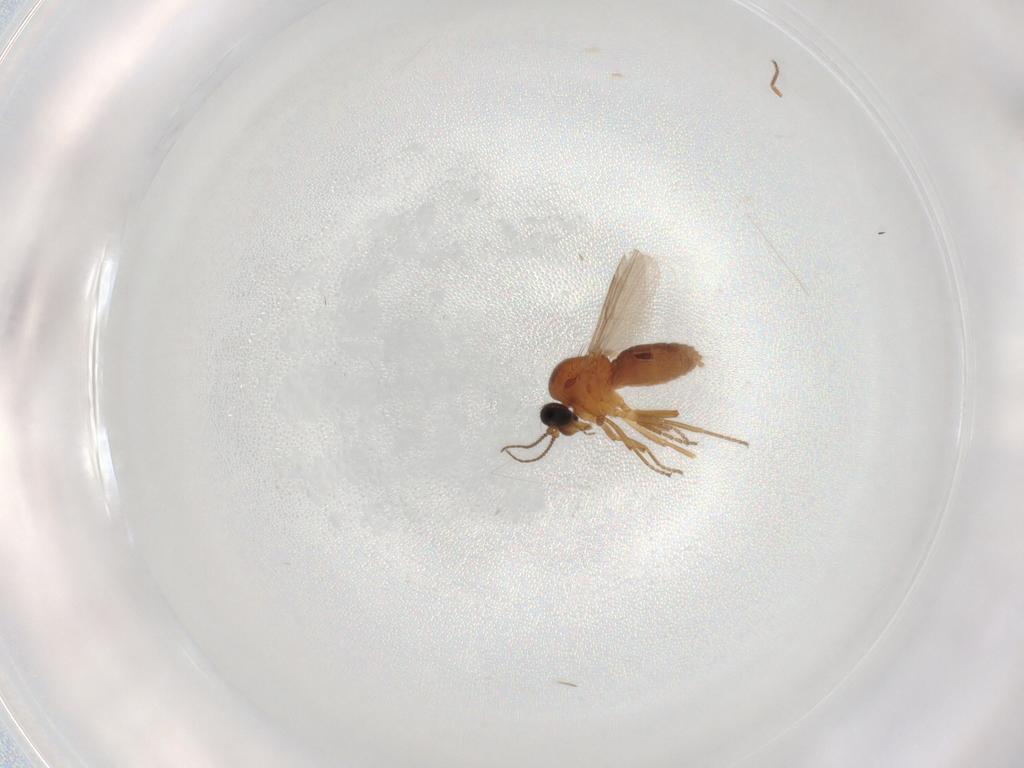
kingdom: Animalia
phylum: Arthropoda
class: Insecta
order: Diptera
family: Ceratopogonidae
